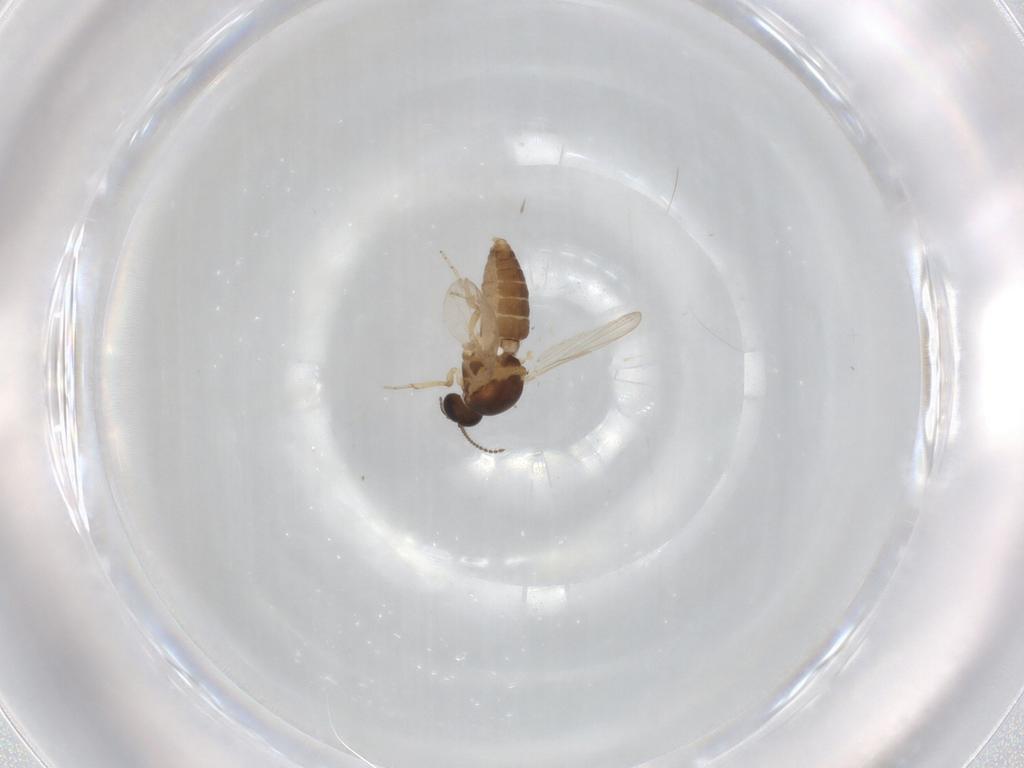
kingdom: Animalia
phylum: Arthropoda
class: Insecta
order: Diptera
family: Ceratopogonidae
